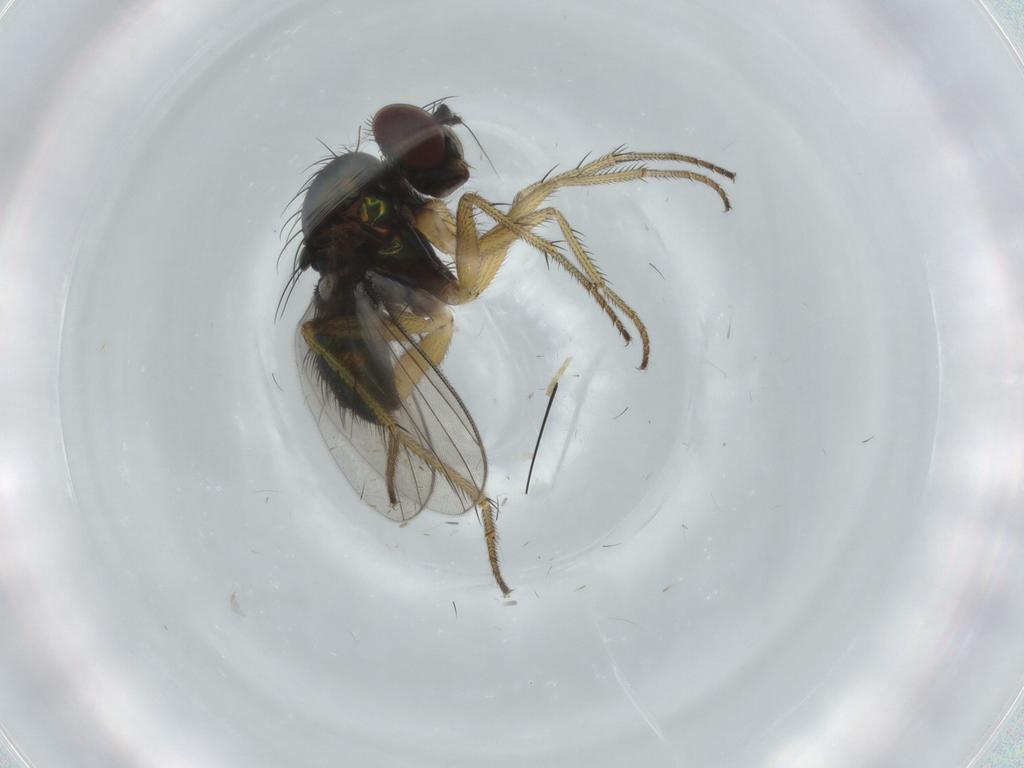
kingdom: Animalia
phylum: Arthropoda
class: Insecta
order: Diptera
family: Dolichopodidae
